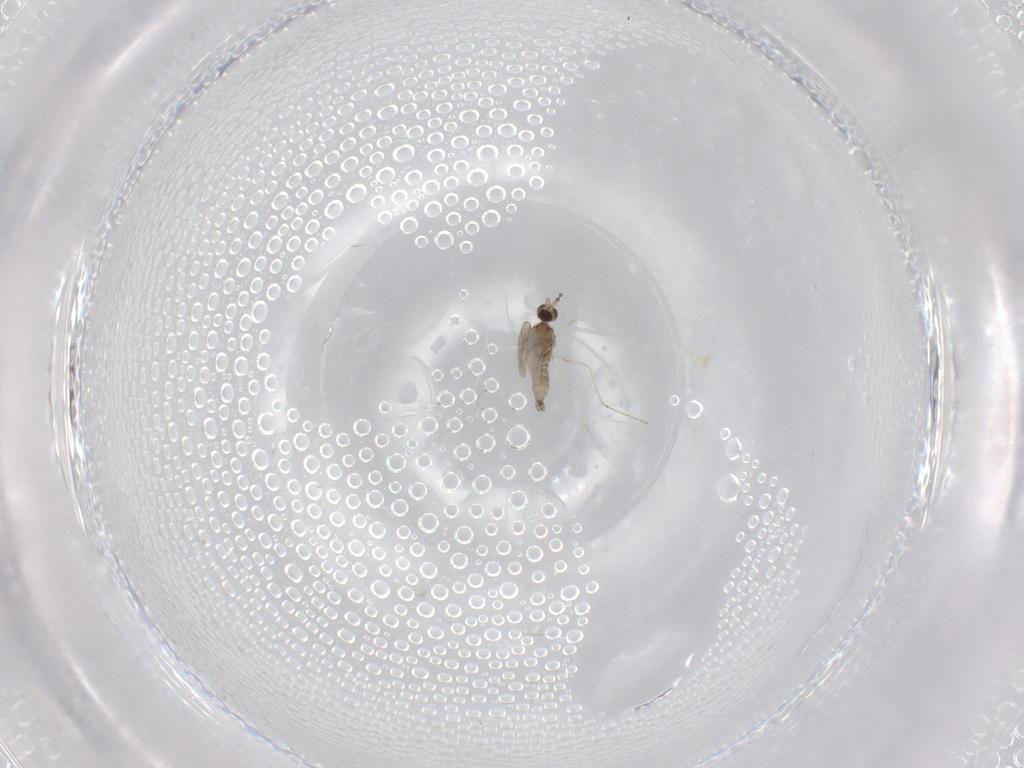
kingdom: Animalia
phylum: Arthropoda
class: Insecta
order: Diptera
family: Cecidomyiidae
